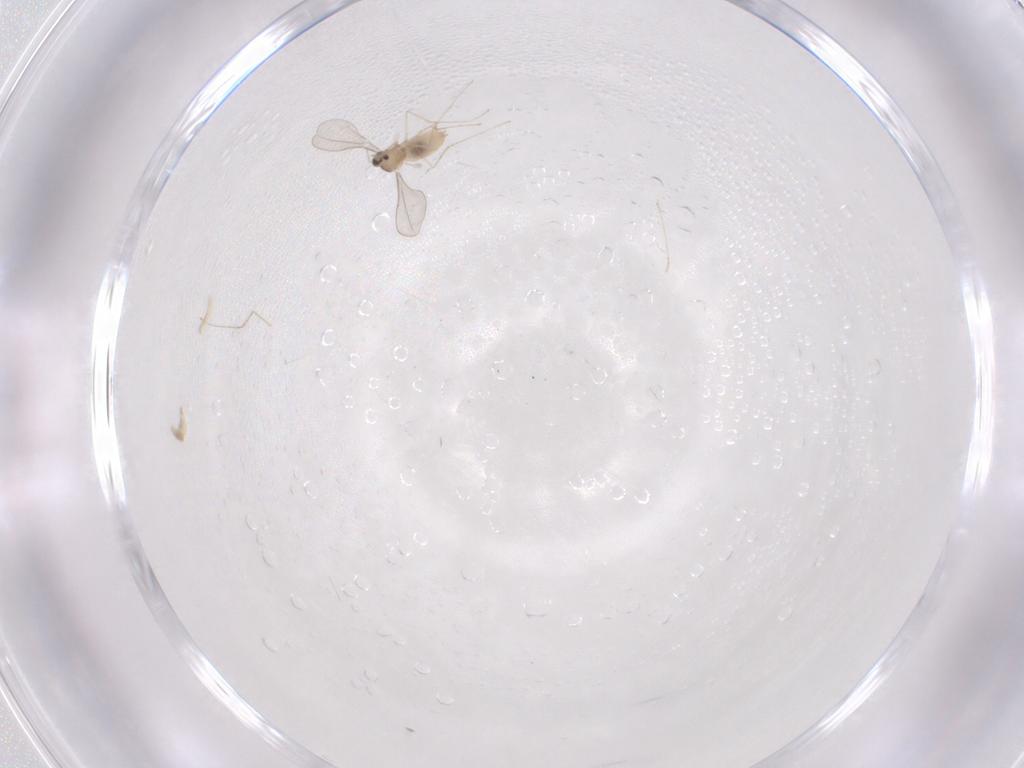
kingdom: Animalia
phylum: Arthropoda
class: Insecta
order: Diptera
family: Cecidomyiidae
